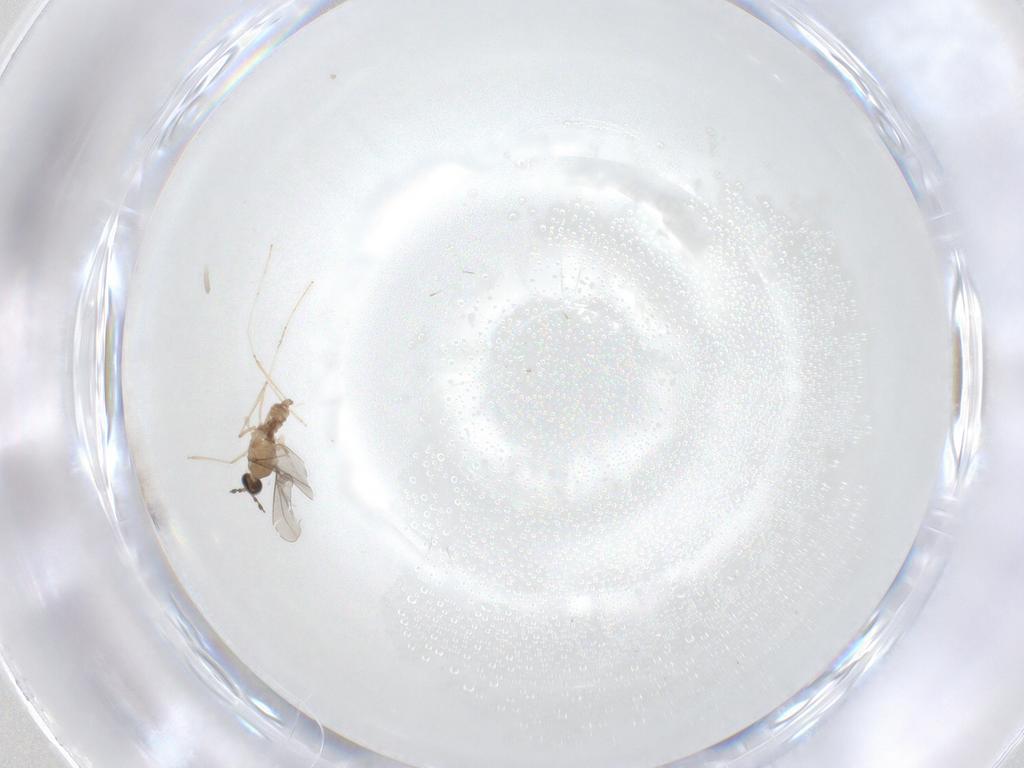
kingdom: Animalia
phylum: Arthropoda
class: Insecta
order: Diptera
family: Cecidomyiidae
